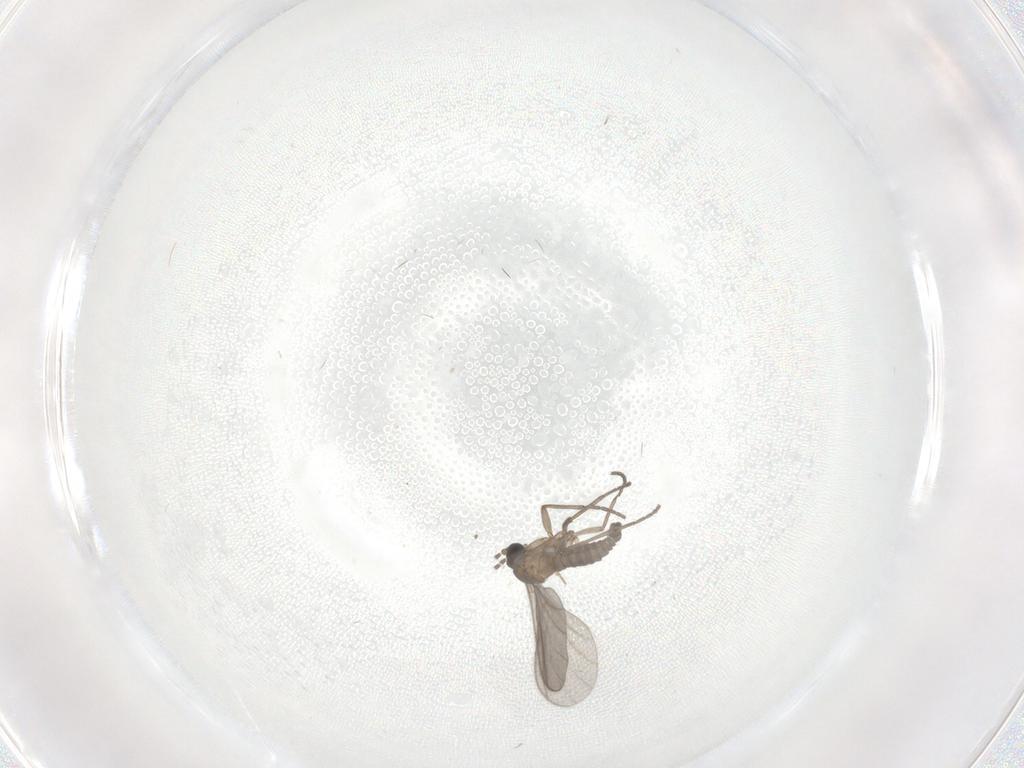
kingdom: Animalia
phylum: Arthropoda
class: Insecta
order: Diptera
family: Sciaridae
